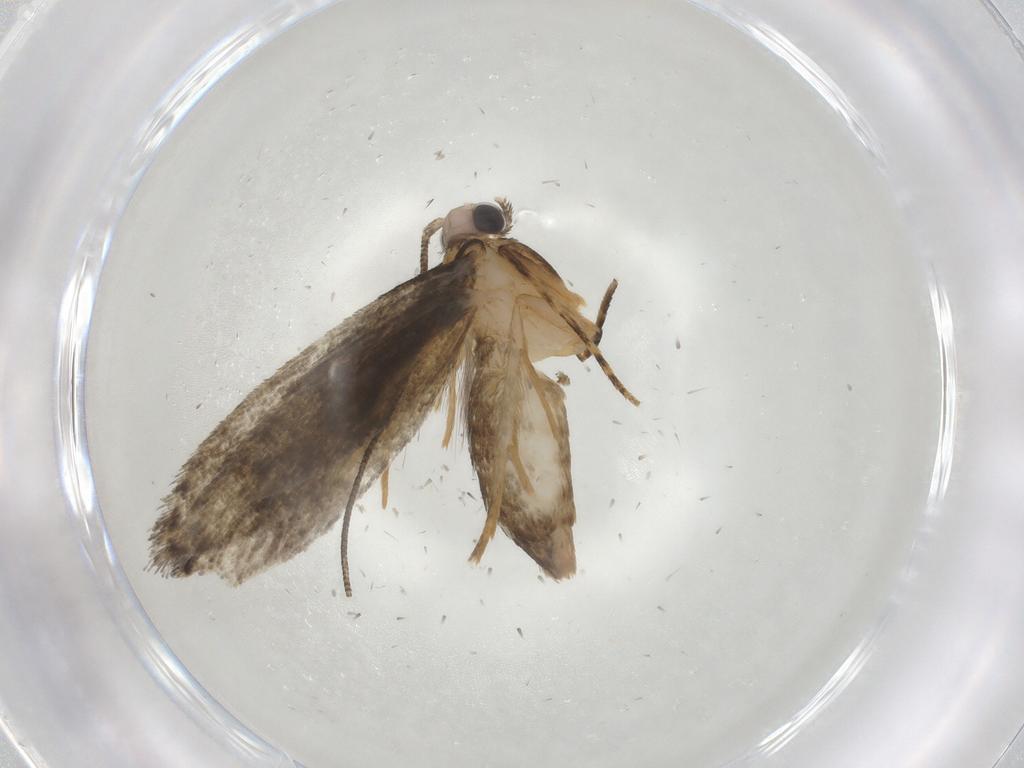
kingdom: Animalia
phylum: Arthropoda
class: Insecta
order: Lepidoptera
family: Tineidae
